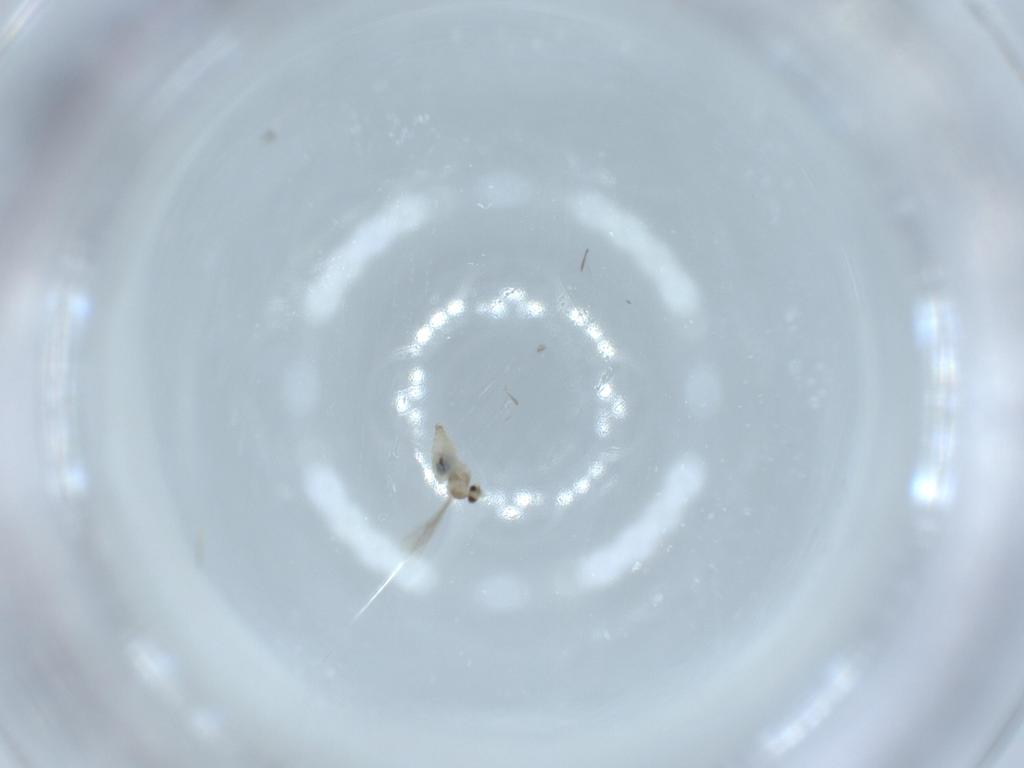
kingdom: Animalia
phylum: Arthropoda
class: Insecta
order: Diptera
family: Cecidomyiidae
